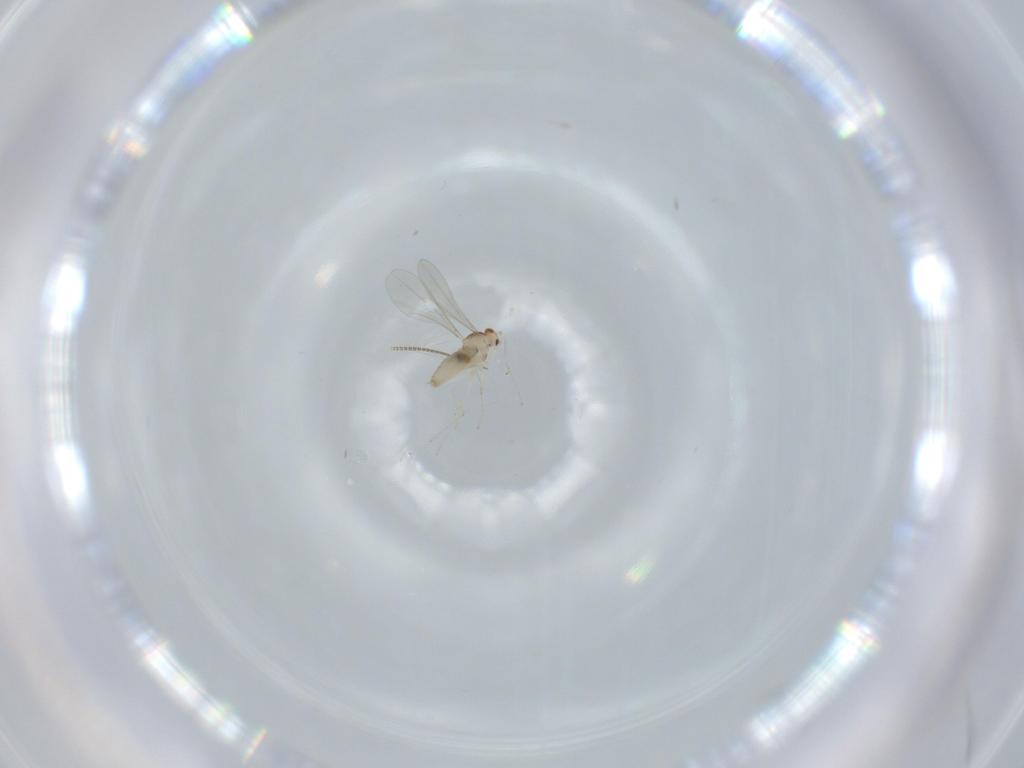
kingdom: Animalia
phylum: Arthropoda
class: Insecta
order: Diptera
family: Cecidomyiidae
